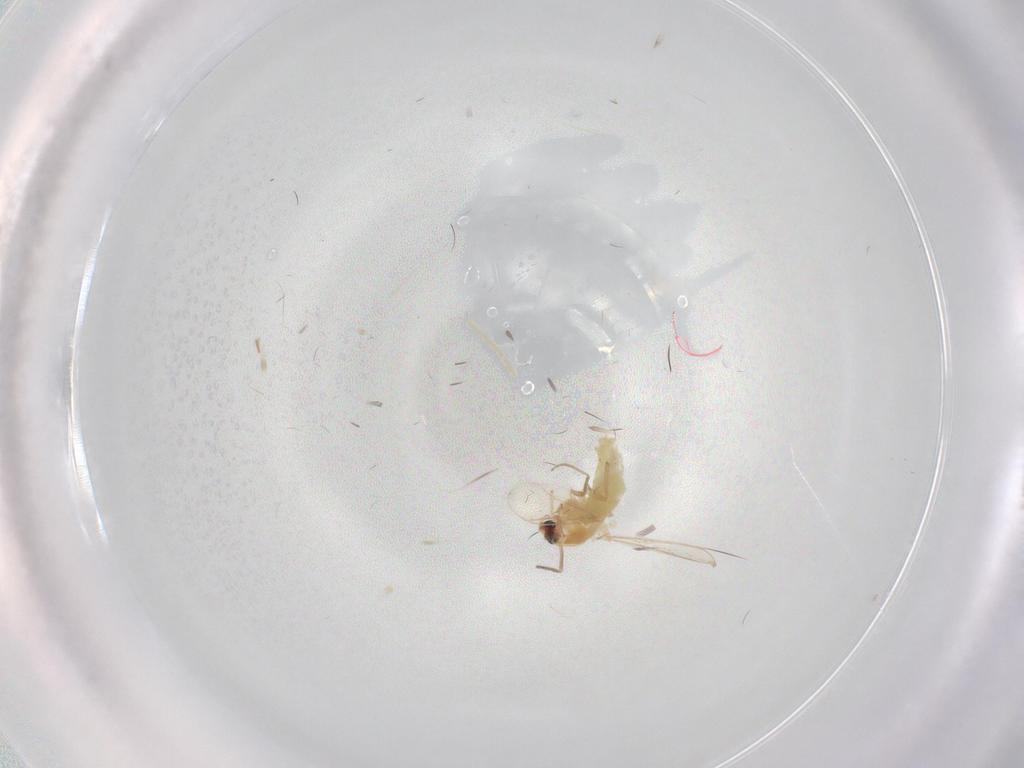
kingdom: Animalia
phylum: Arthropoda
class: Insecta
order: Diptera
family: Chironomidae
